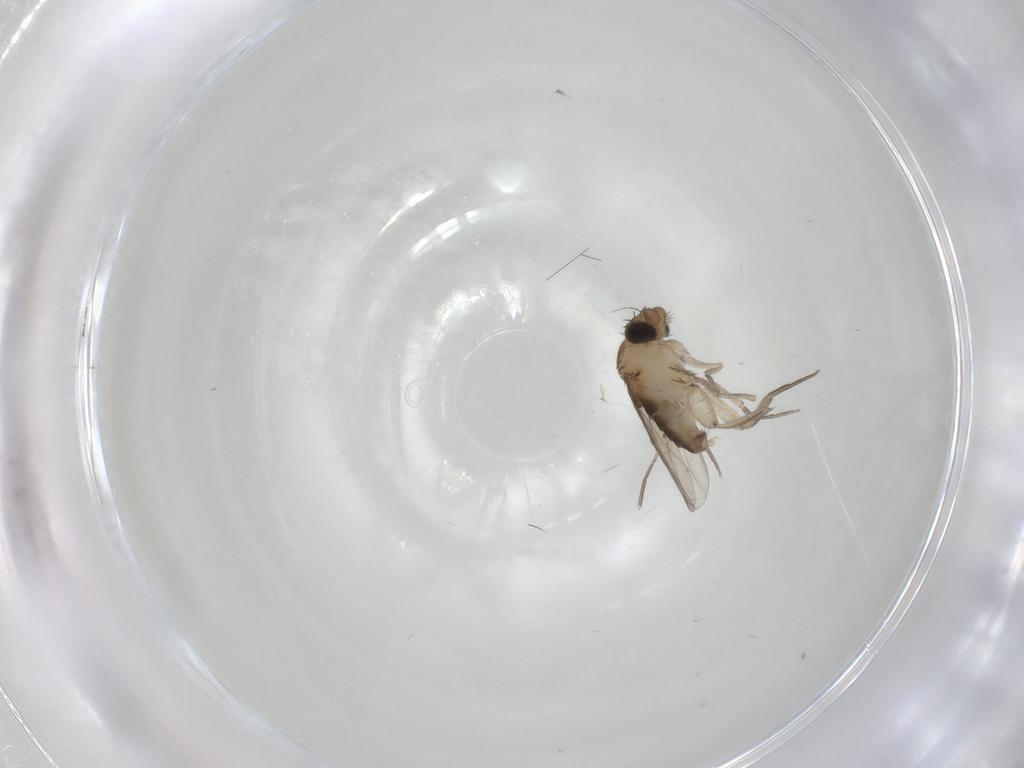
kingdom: Animalia
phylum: Arthropoda
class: Insecta
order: Diptera
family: Phoridae
